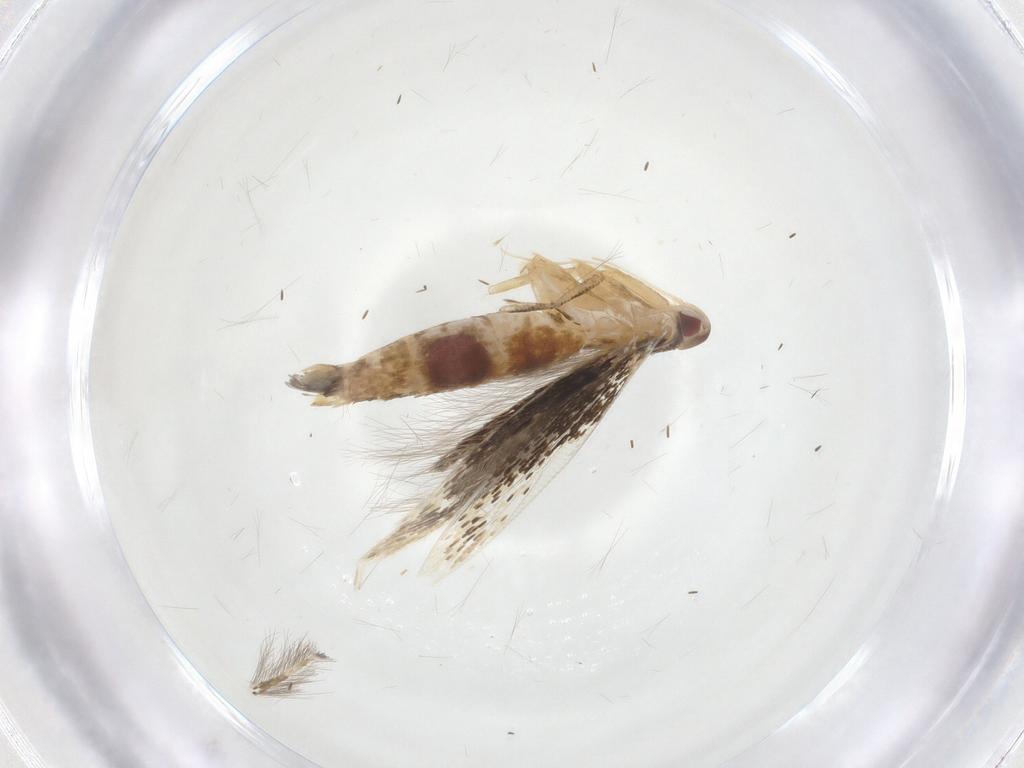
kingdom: Animalia
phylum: Arthropoda
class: Insecta
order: Lepidoptera
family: Cosmopterigidae
